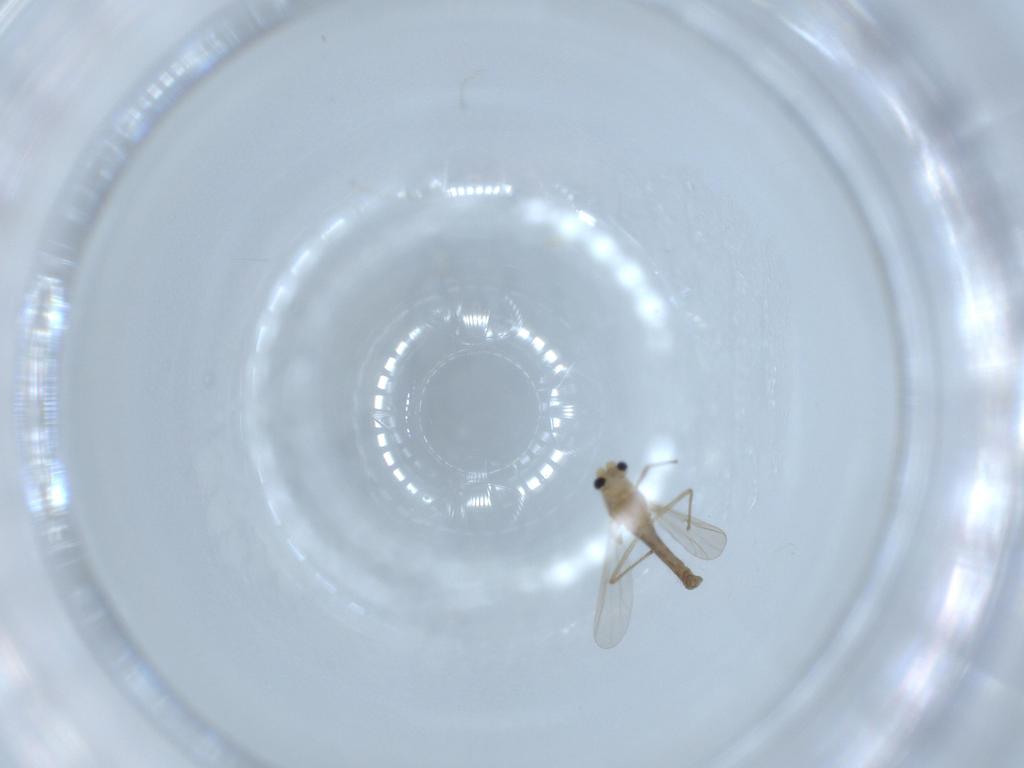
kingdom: Animalia
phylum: Arthropoda
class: Insecta
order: Diptera
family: Chironomidae
